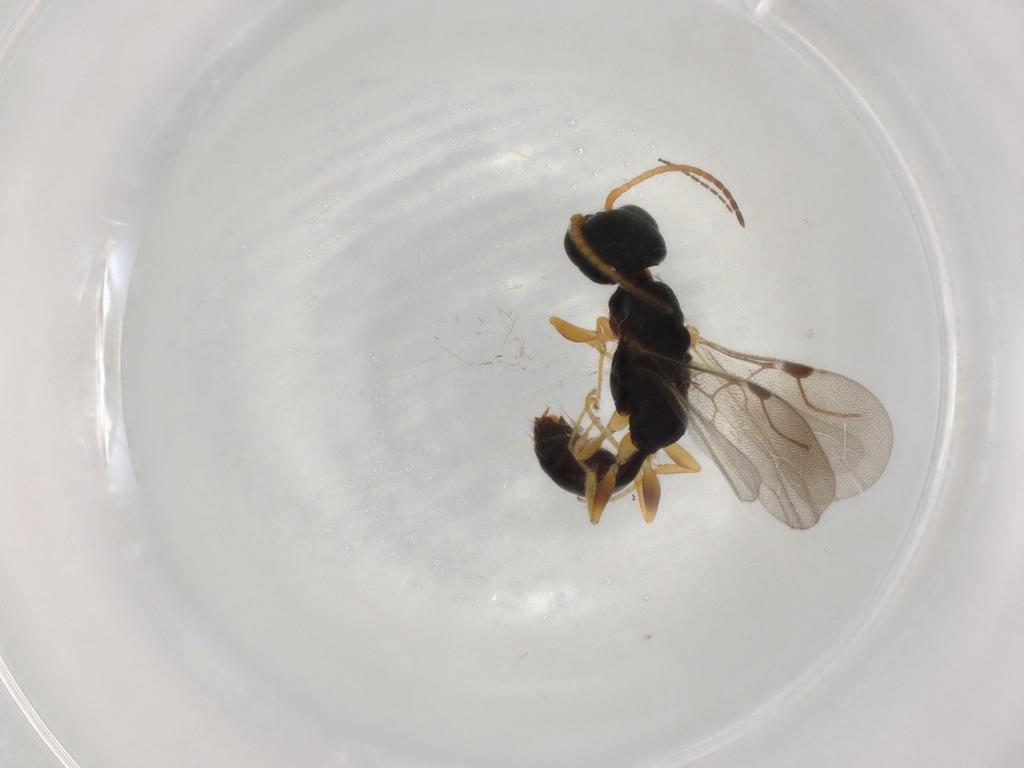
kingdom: Animalia
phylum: Arthropoda
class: Insecta
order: Hymenoptera
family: Bethylidae
